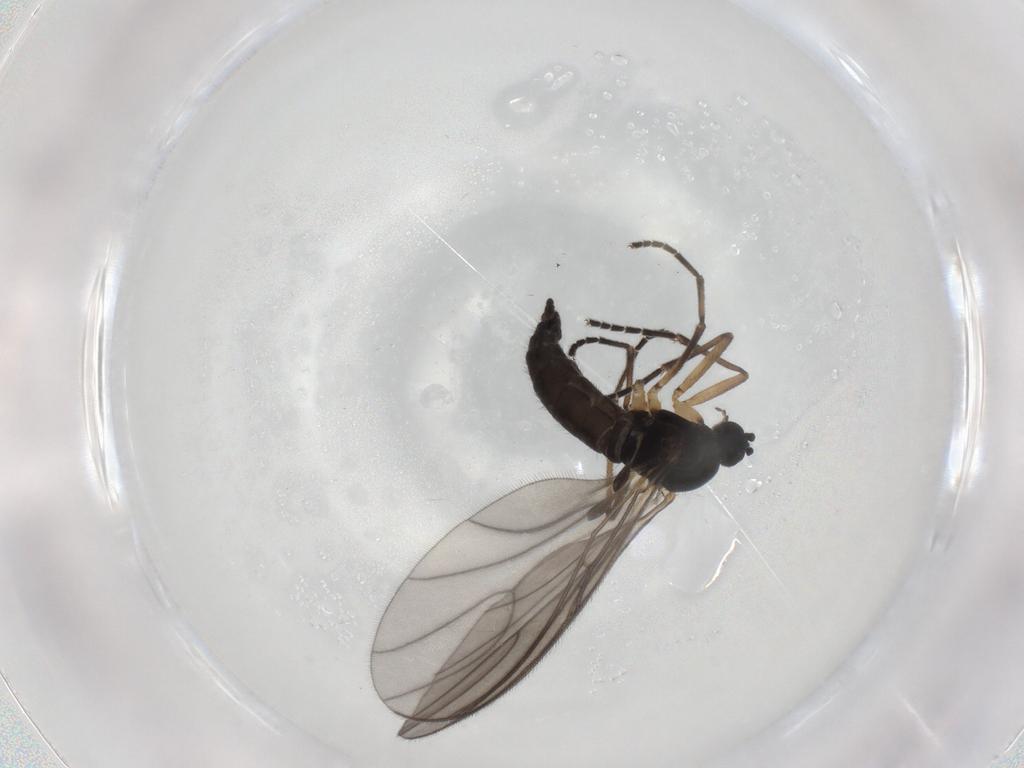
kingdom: Animalia
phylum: Arthropoda
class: Insecta
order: Diptera
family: Sciaridae
